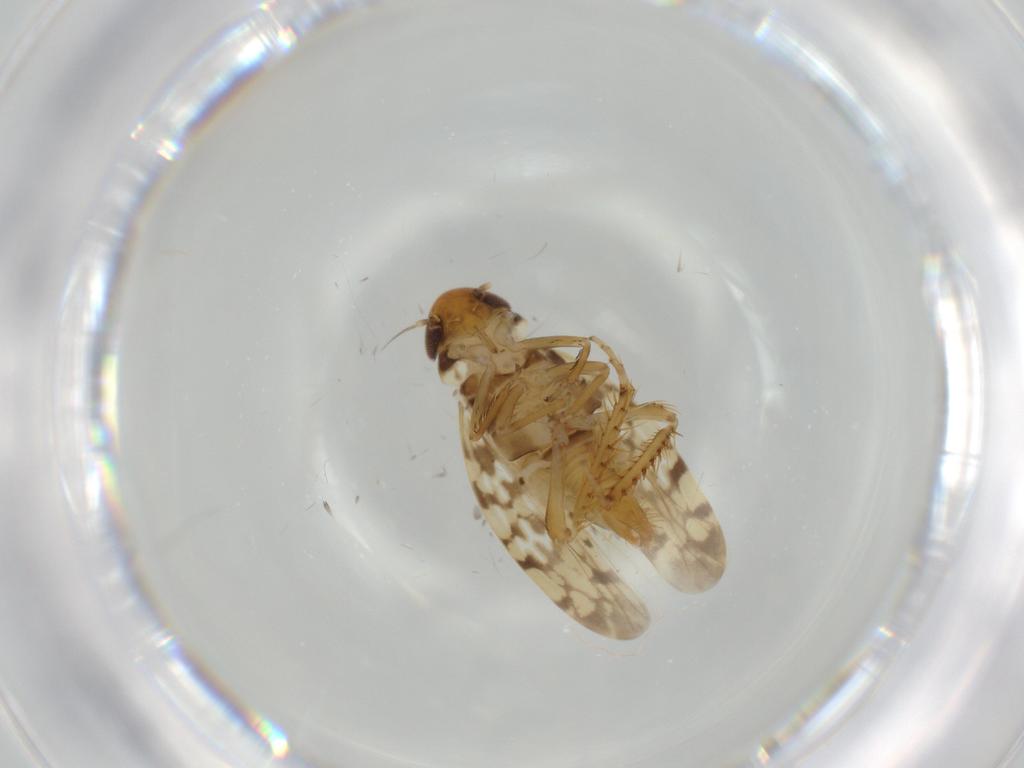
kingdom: Animalia
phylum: Arthropoda
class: Insecta
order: Hemiptera
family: Cicadellidae
